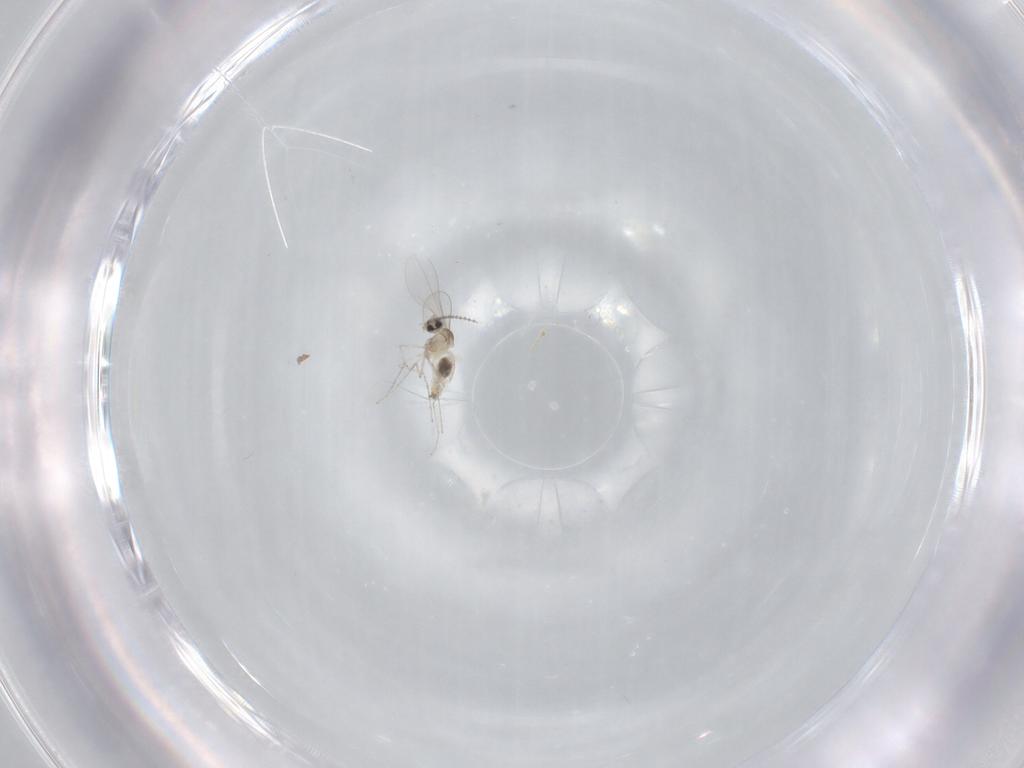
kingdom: Animalia
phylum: Arthropoda
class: Insecta
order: Diptera
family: Cecidomyiidae
